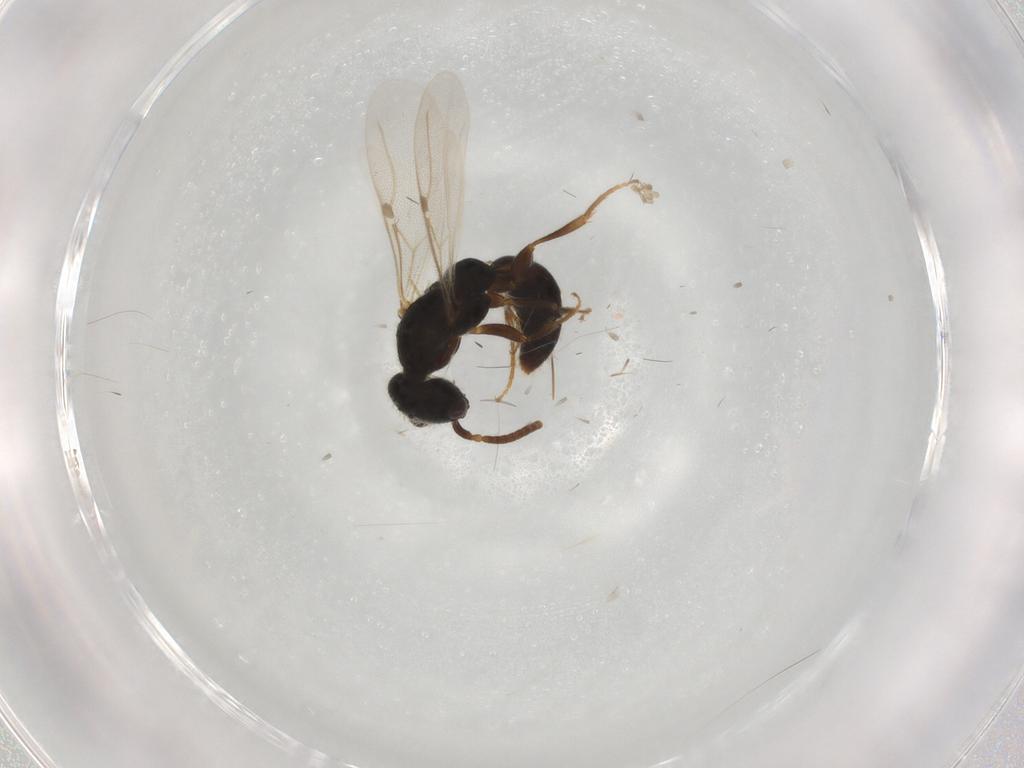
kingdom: Animalia
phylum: Arthropoda
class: Insecta
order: Hymenoptera
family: Bethylidae
